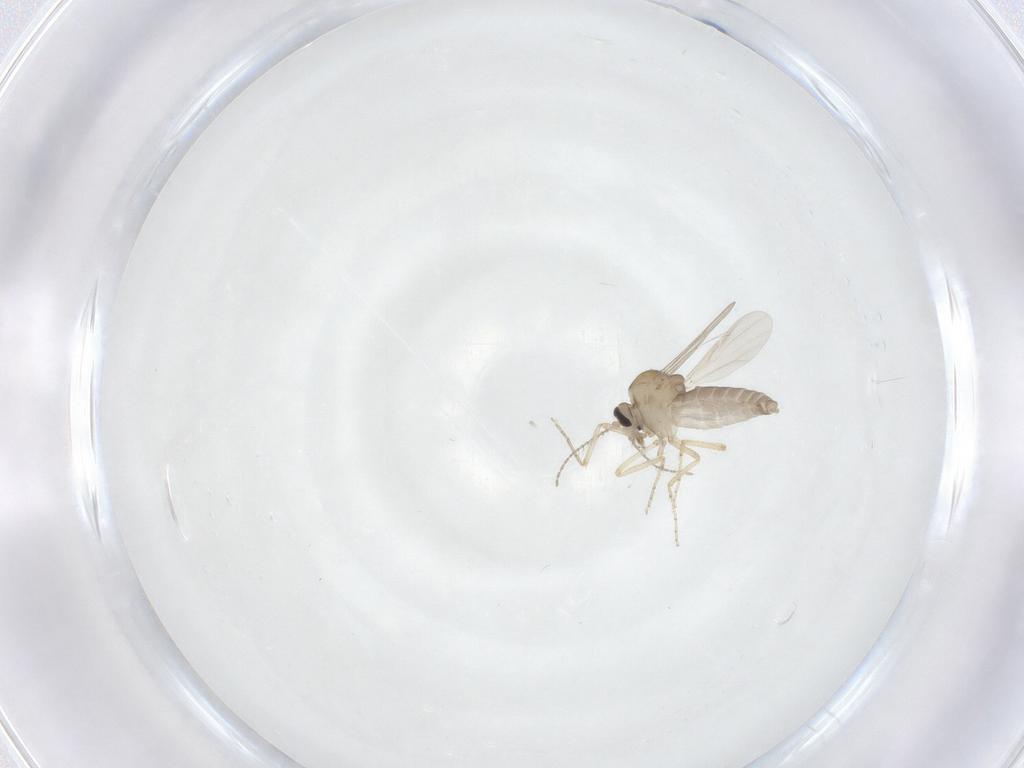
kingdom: Animalia
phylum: Arthropoda
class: Insecta
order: Diptera
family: Ceratopogonidae
